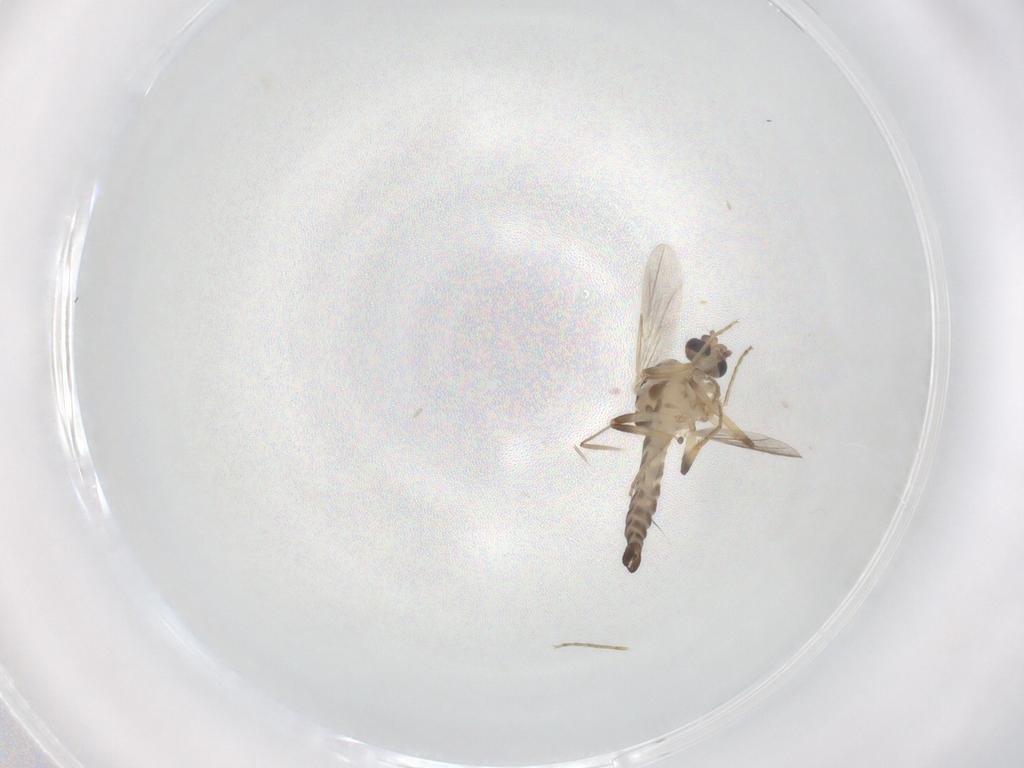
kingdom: Animalia
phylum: Arthropoda
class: Insecta
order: Diptera
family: Ceratopogonidae
